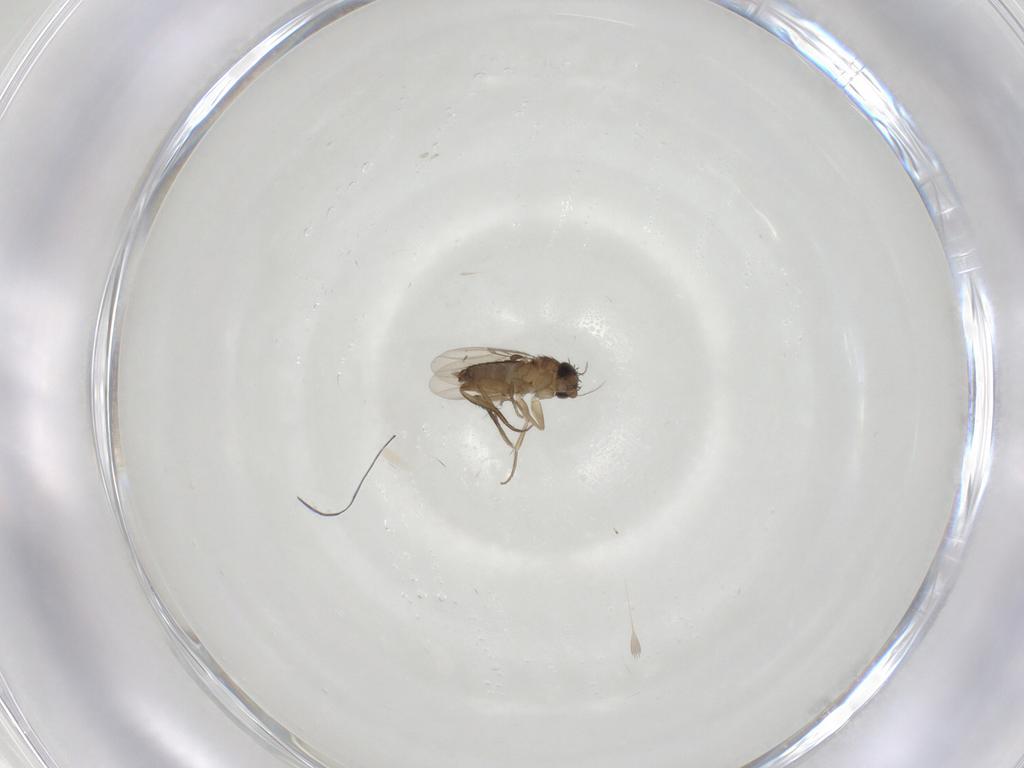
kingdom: Animalia
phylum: Arthropoda
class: Insecta
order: Diptera
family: Phoridae
